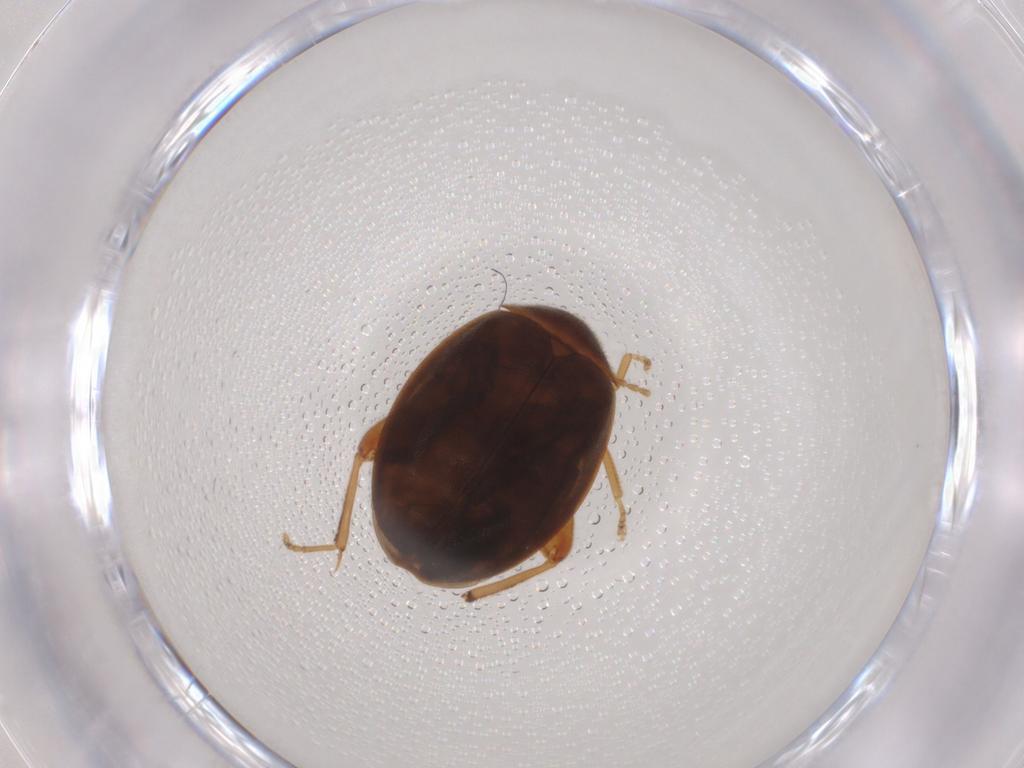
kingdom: Animalia
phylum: Arthropoda
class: Insecta
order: Coleoptera
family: Scirtidae
